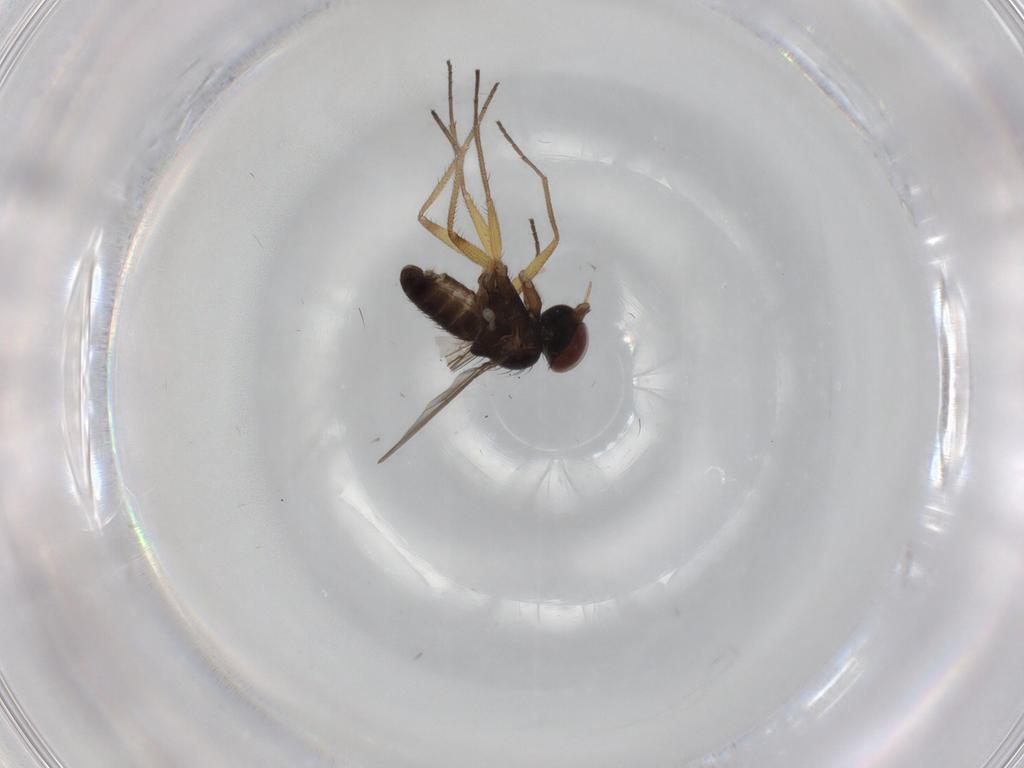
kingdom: Animalia
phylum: Arthropoda
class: Insecta
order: Diptera
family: Dolichopodidae
